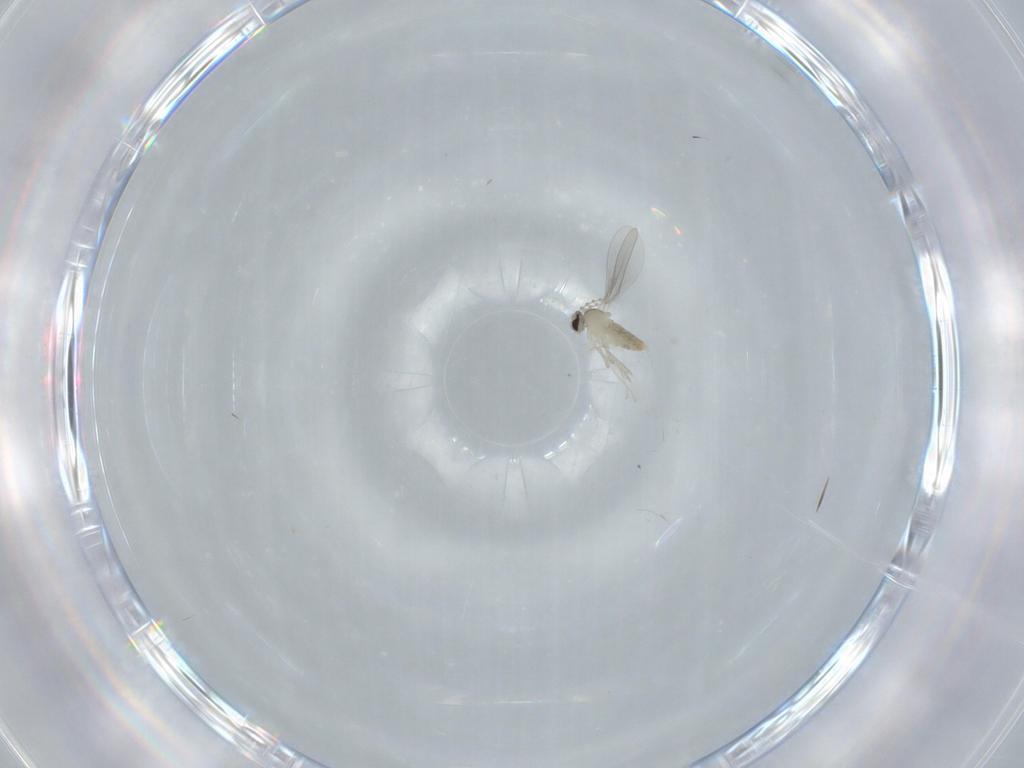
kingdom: Animalia
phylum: Arthropoda
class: Insecta
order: Diptera
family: Cecidomyiidae
